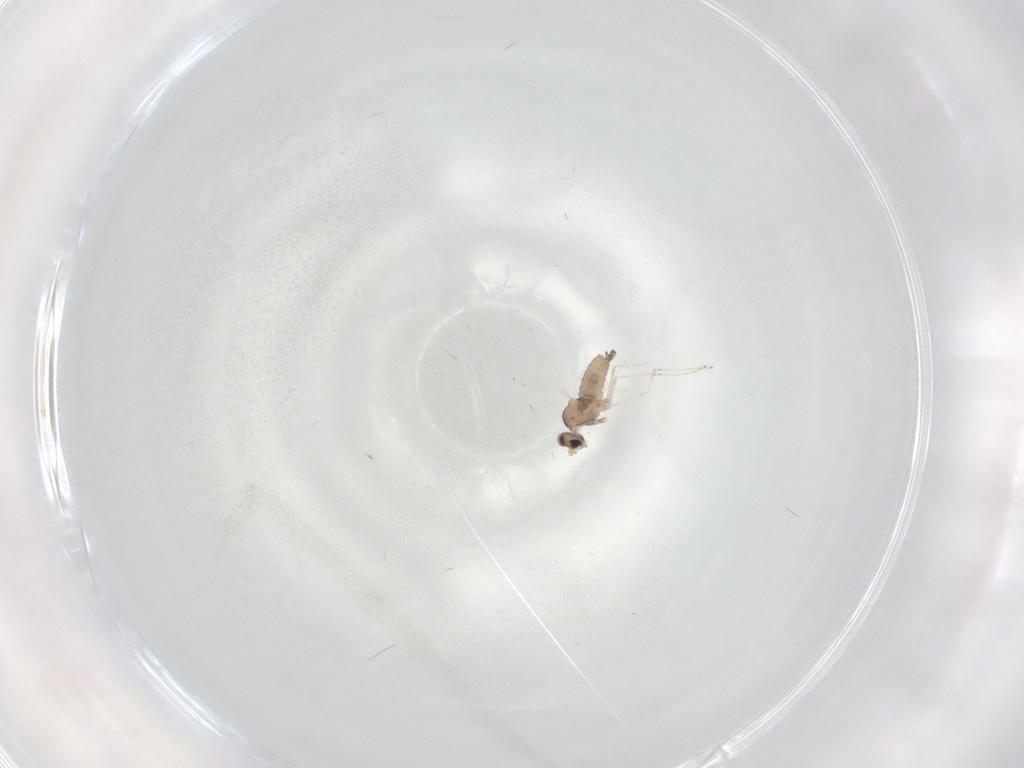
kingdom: Animalia
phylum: Arthropoda
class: Insecta
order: Diptera
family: Cecidomyiidae
